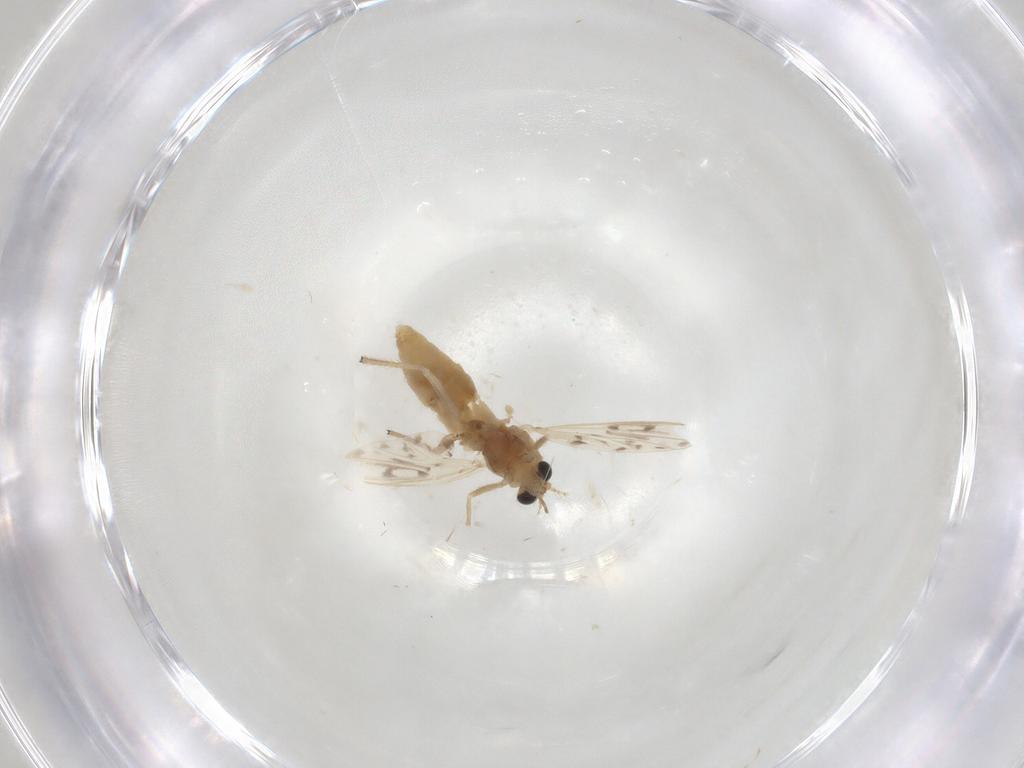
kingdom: Animalia
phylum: Arthropoda
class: Insecta
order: Diptera
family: Chironomidae
